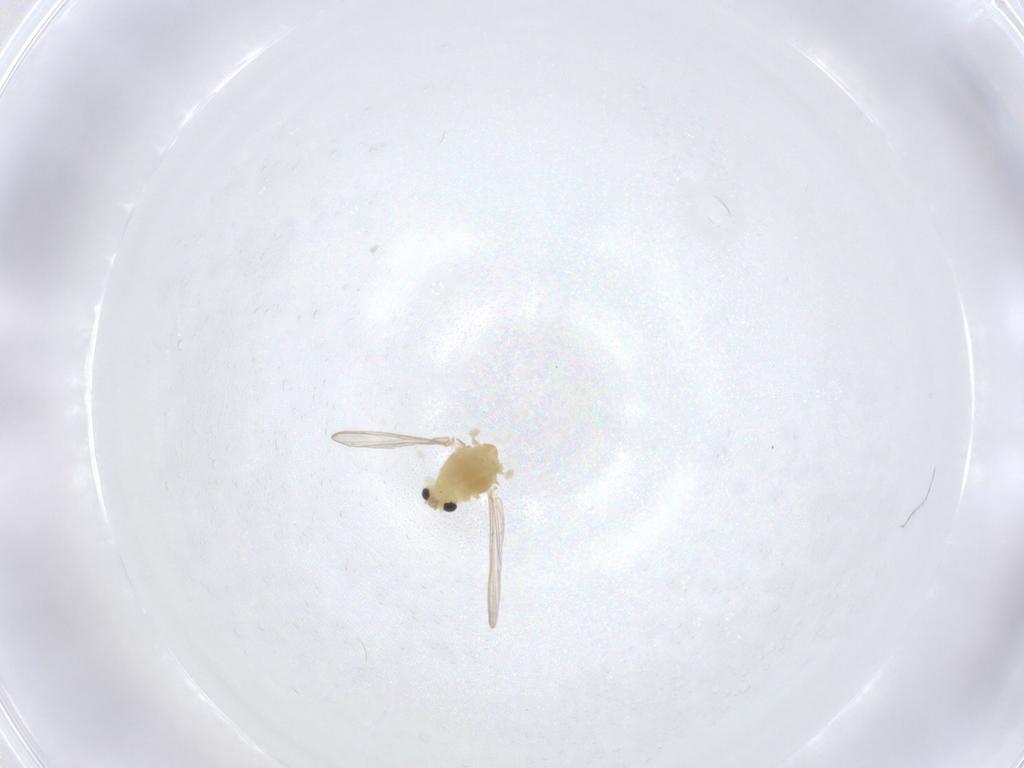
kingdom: Animalia
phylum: Arthropoda
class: Insecta
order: Diptera
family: Chironomidae
